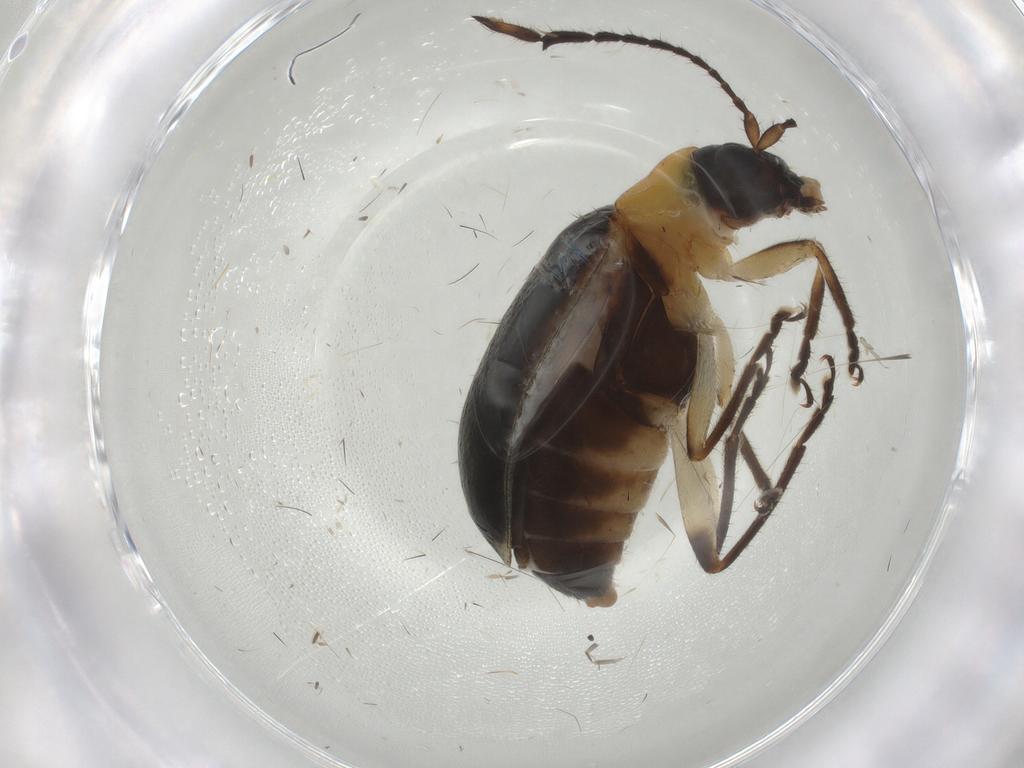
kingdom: Animalia
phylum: Arthropoda
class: Insecta
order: Coleoptera
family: Chrysomelidae
